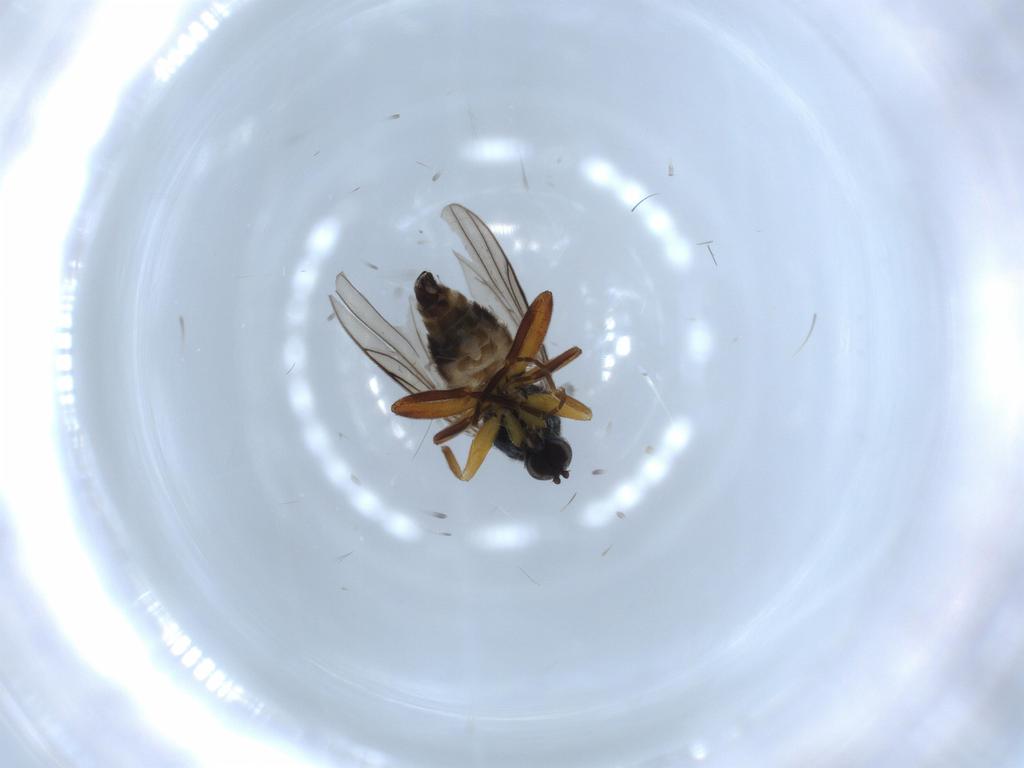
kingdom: Animalia
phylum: Arthropoda
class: Insecta
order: Diptera
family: Hybotidae
